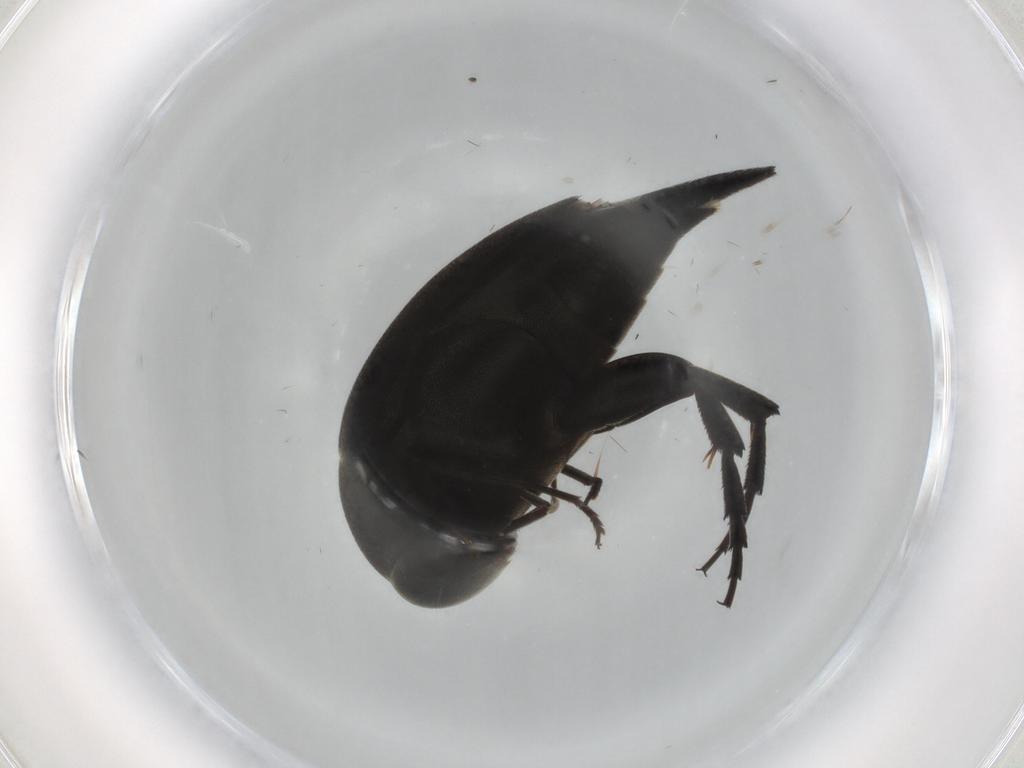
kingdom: Animalia
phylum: Arthropoda
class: Insecta
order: Coleoptera
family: Mordellidae
